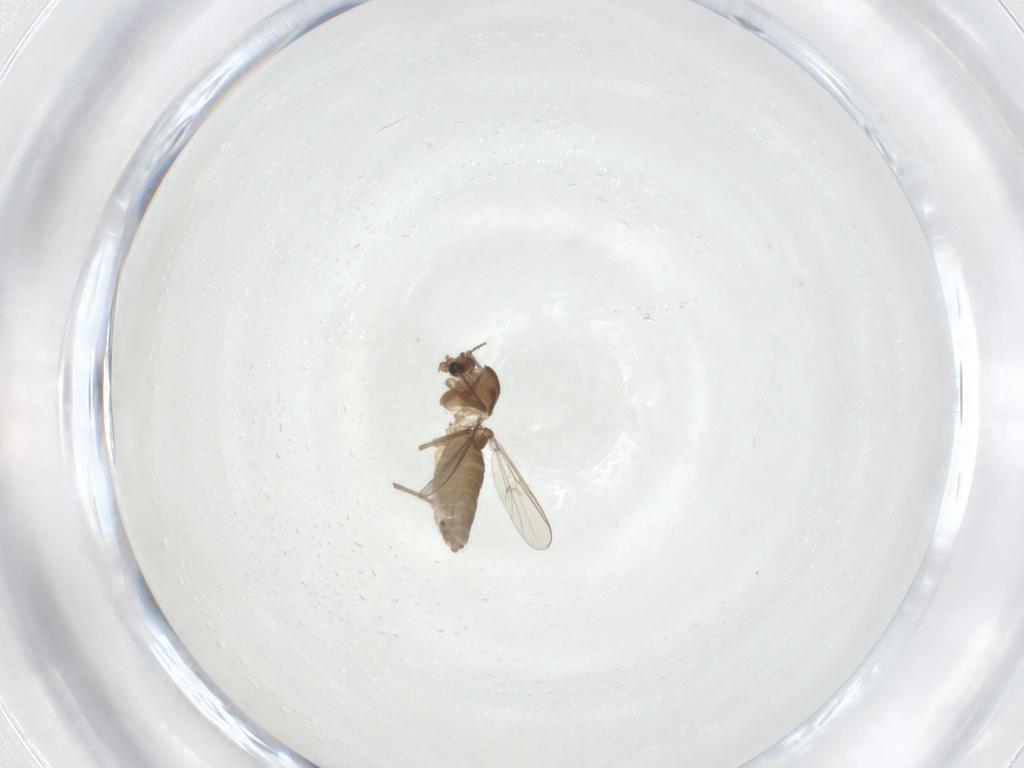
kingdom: Animalia
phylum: Arthropoda
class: Insecta
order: Diptera
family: Chironomidae
